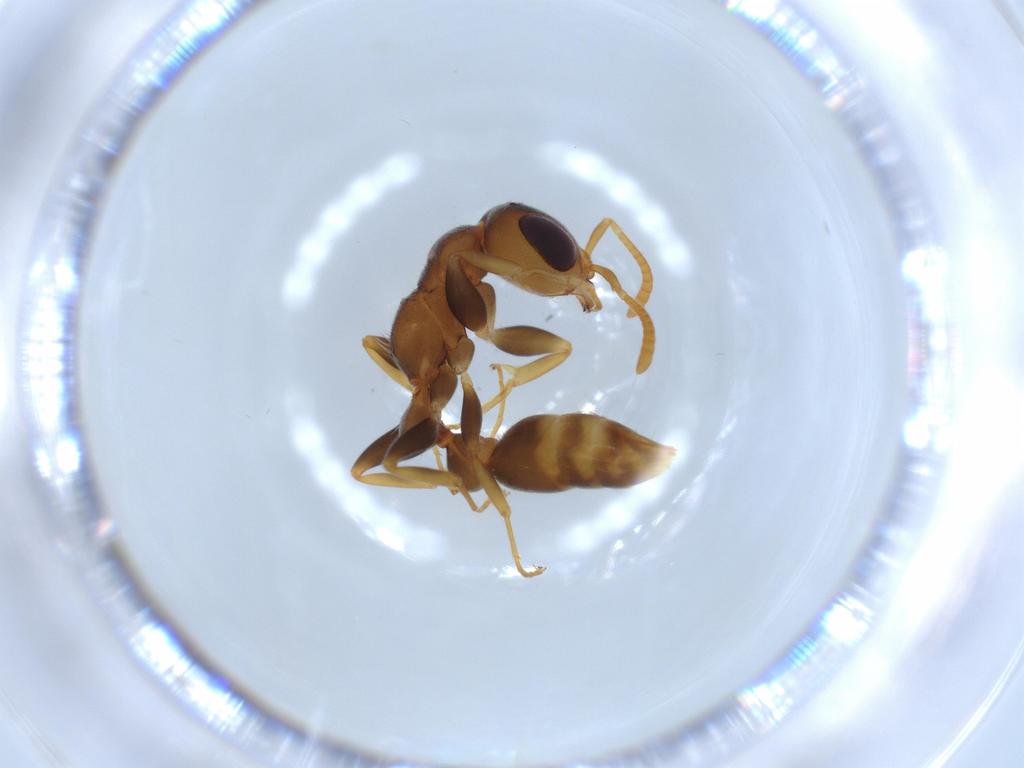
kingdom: Animalia
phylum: Arthropoda
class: Insecta
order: Hymenoptera
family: Formicidae
